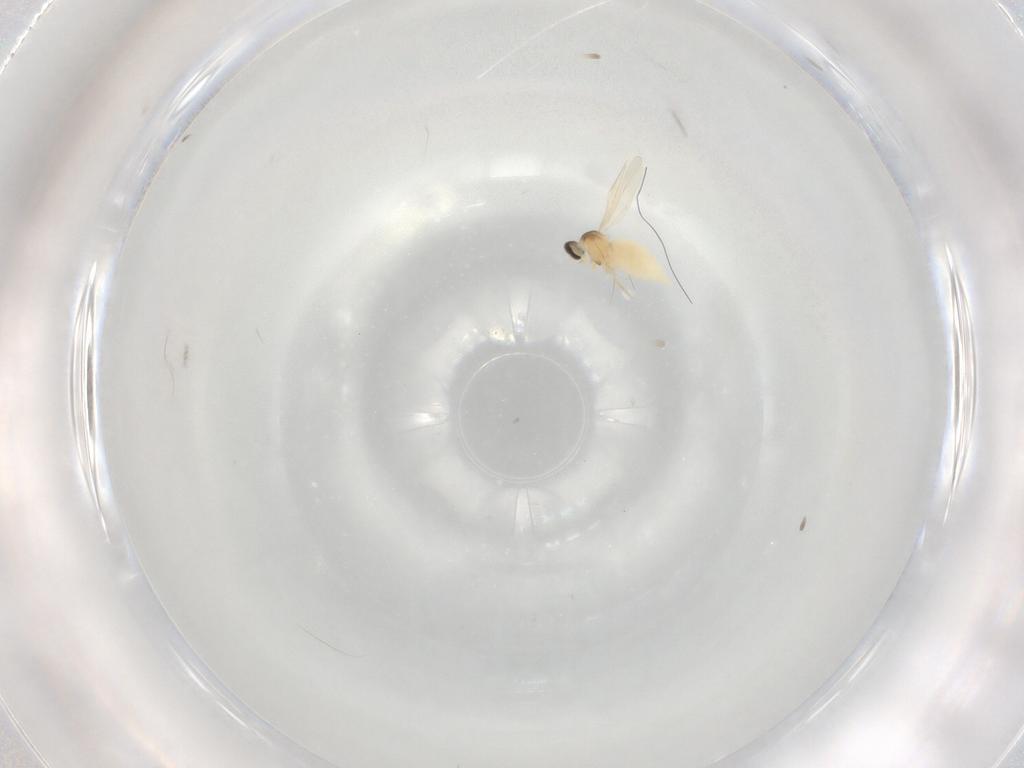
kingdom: Animalia
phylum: Arthropoda
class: Insecta
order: Diptera
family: Cecidomyiidae
